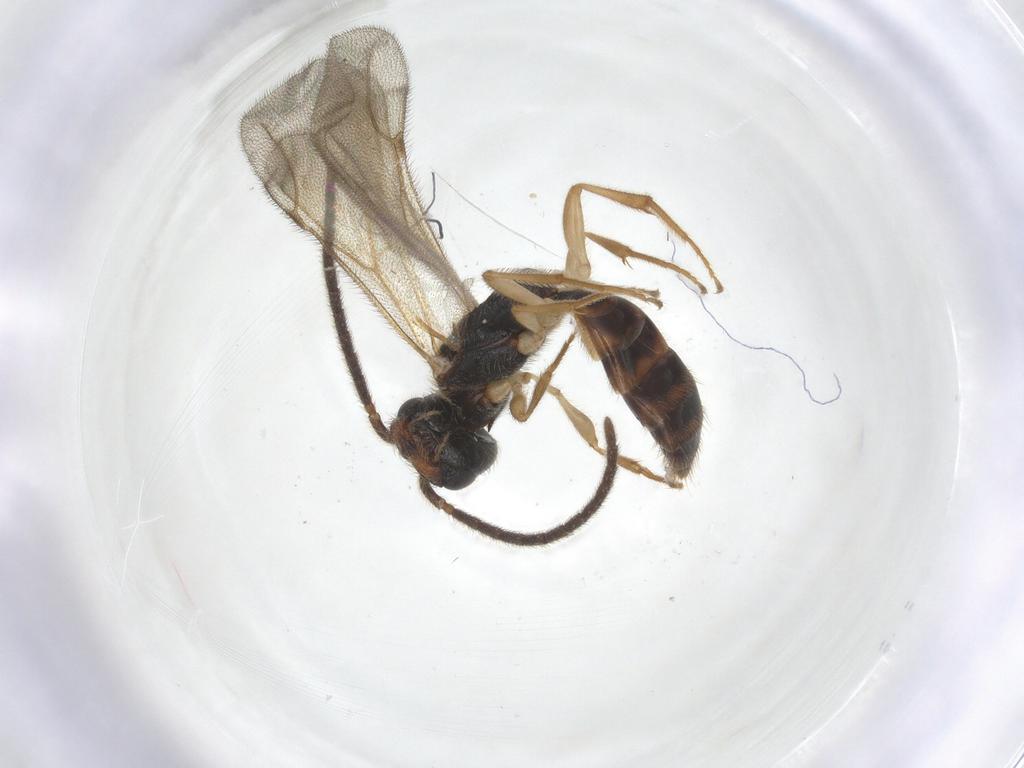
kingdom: Animalia
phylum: Arthropoda
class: Insecta
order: Hymenoptera
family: Bethylidae
